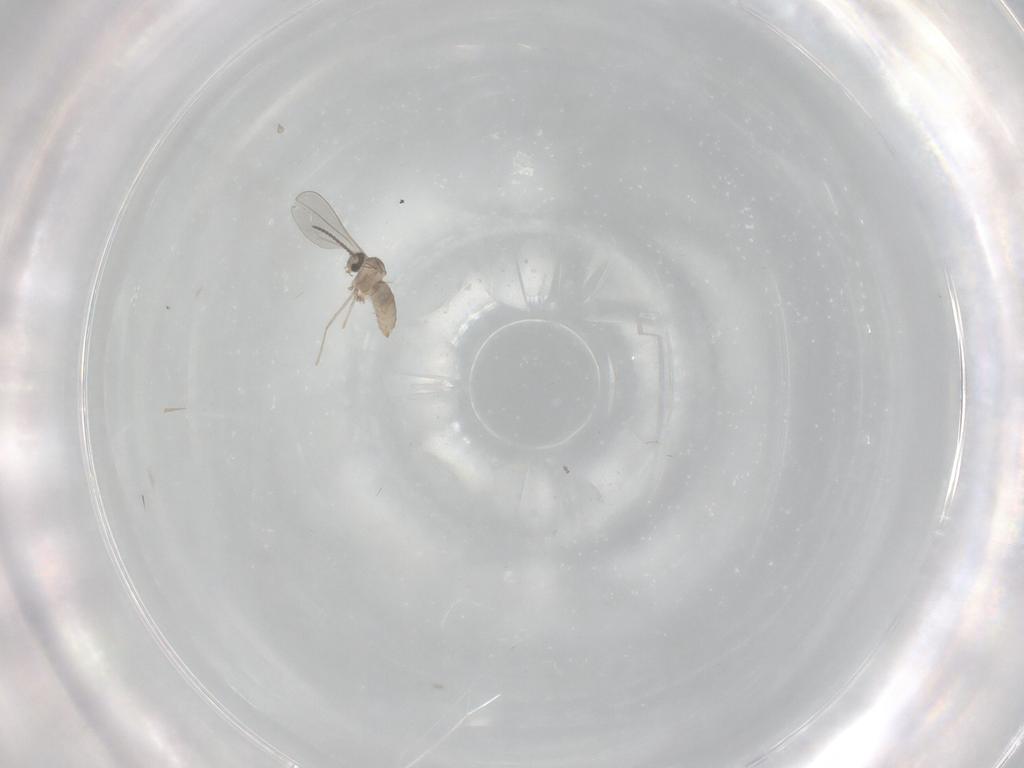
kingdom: Animalia
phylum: Arthropoda
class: Insecta
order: Diptera
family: Cecidomyiidae
